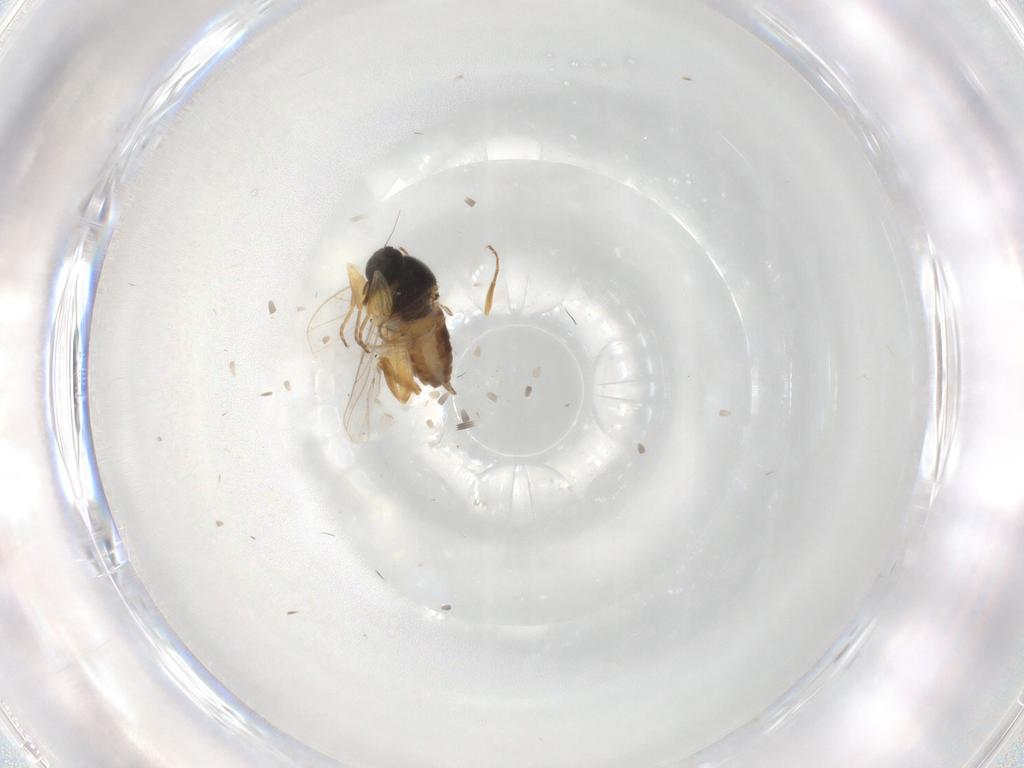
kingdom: Animalia
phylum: Arthropoda
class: Insecta
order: Diptera
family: Hybotidae
